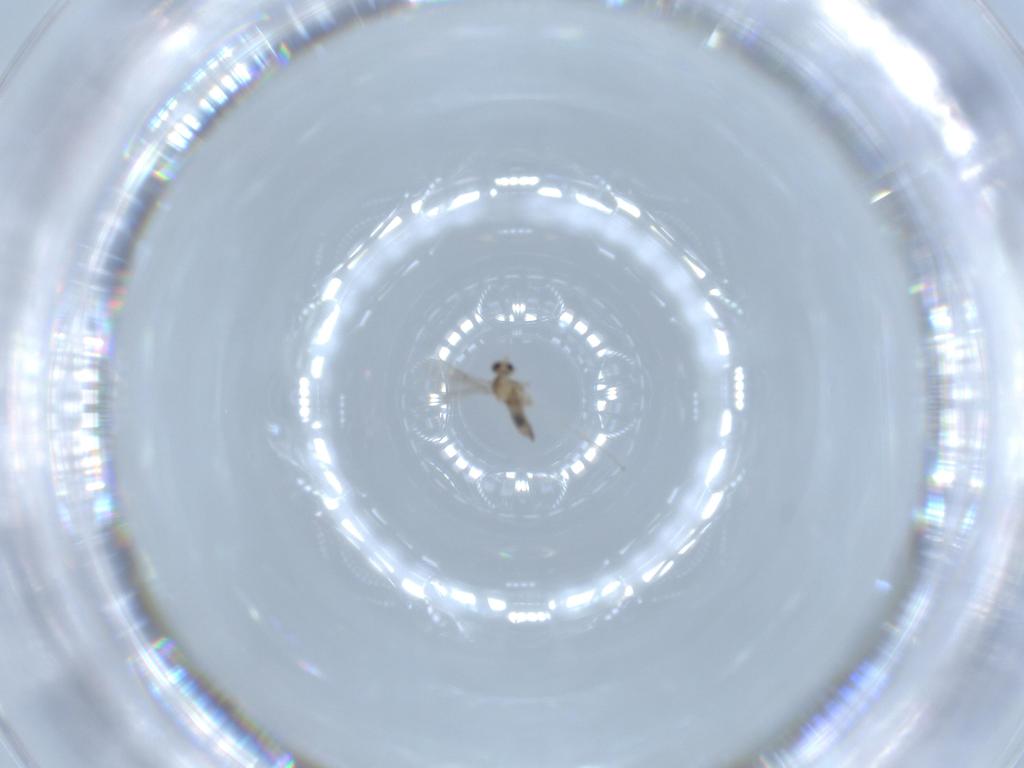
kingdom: Animalia
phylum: Arthropoda
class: Insecta
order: Diptera
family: Cecidomyiidae
